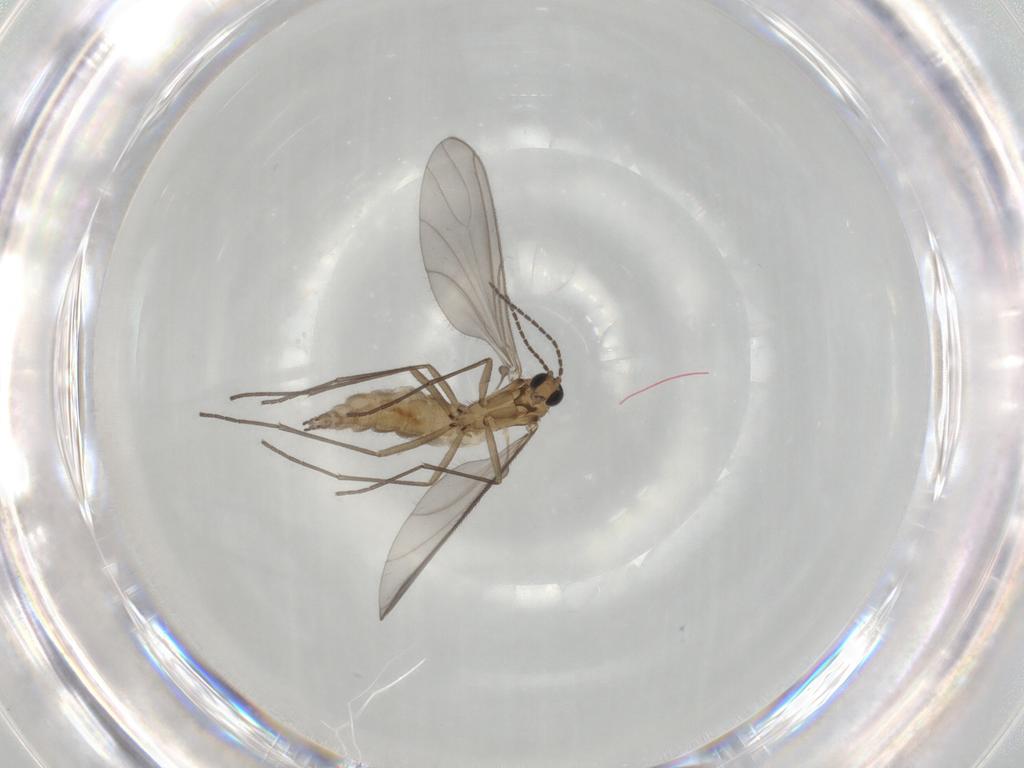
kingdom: Animalia
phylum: Arthropoda
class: Insecta
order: Diptera
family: Sciaridae
